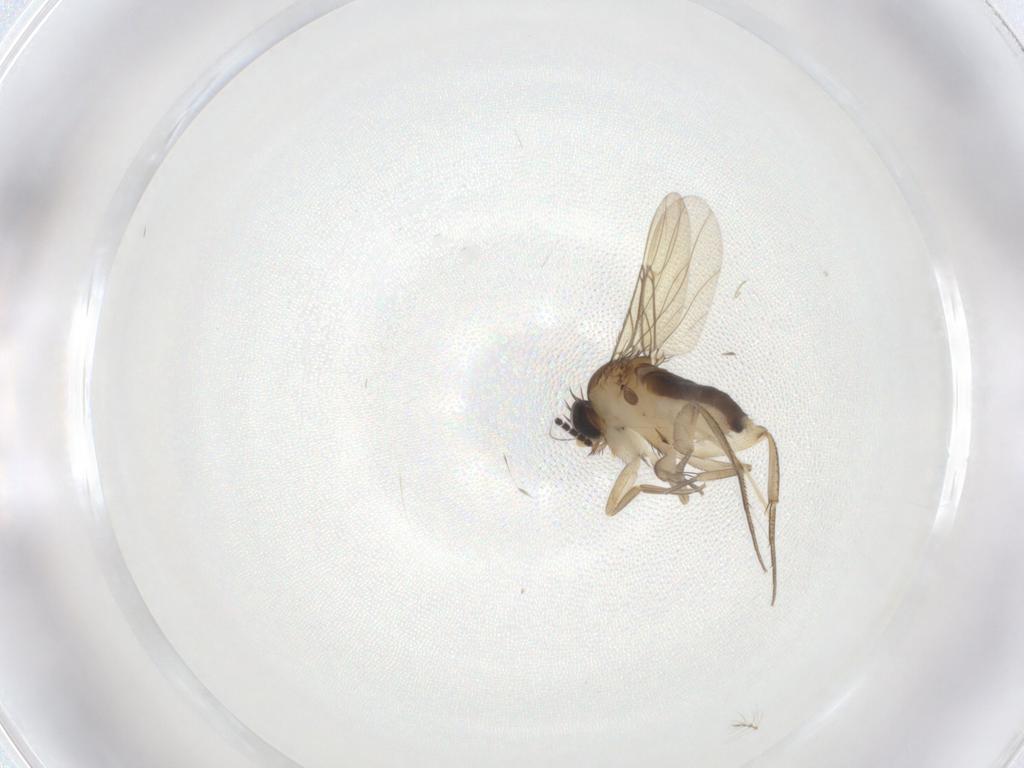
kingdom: Animalia
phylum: Arthropoda
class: Insecta
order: Diptera
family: Phoridae
